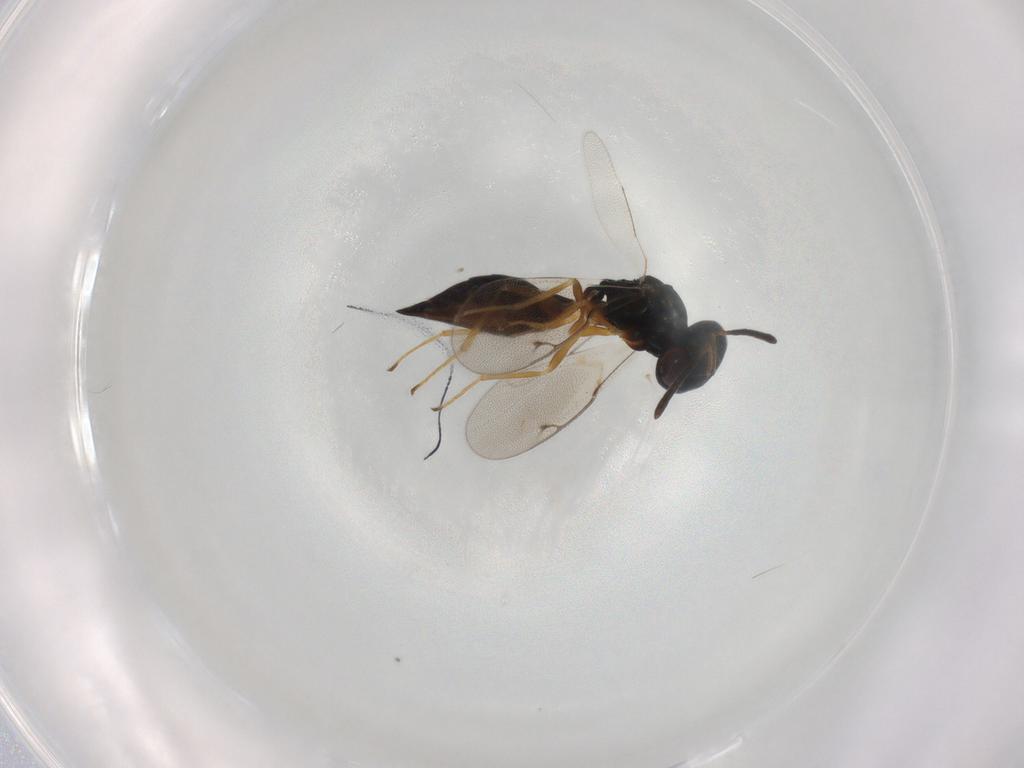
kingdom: Animalia
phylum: Arthropoda
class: Insecta
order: Hymenoptera
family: Pteromalidae
